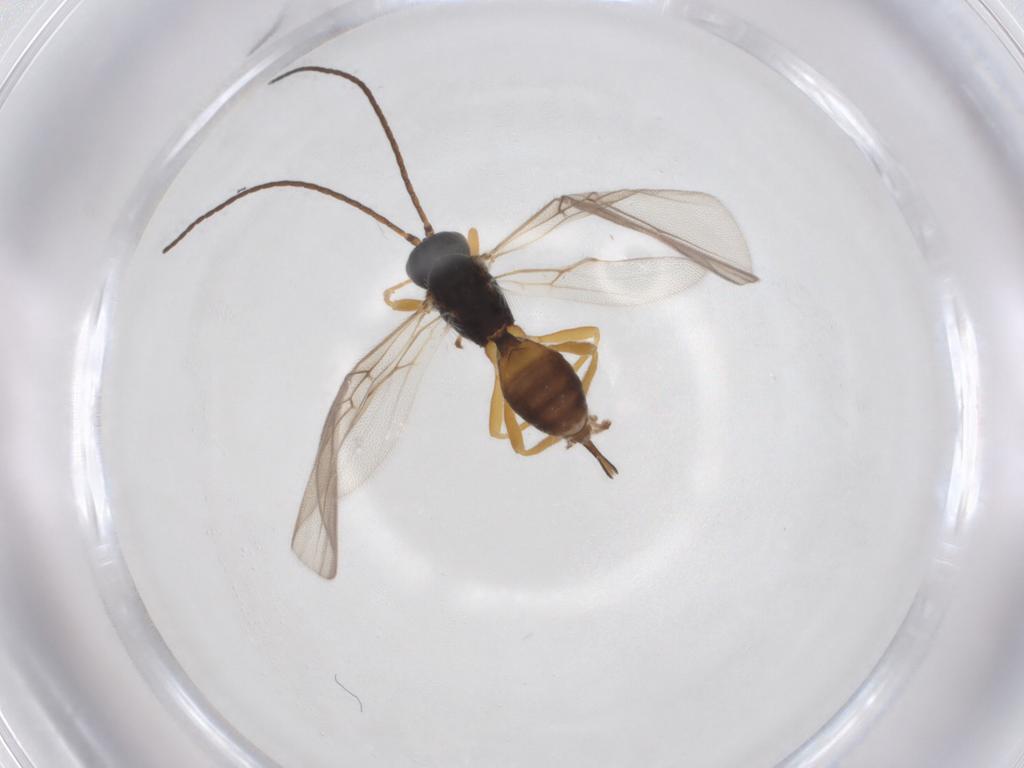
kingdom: Animalia
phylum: Arthropoda
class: Insecta
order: Hymenoptera
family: Braconidae
